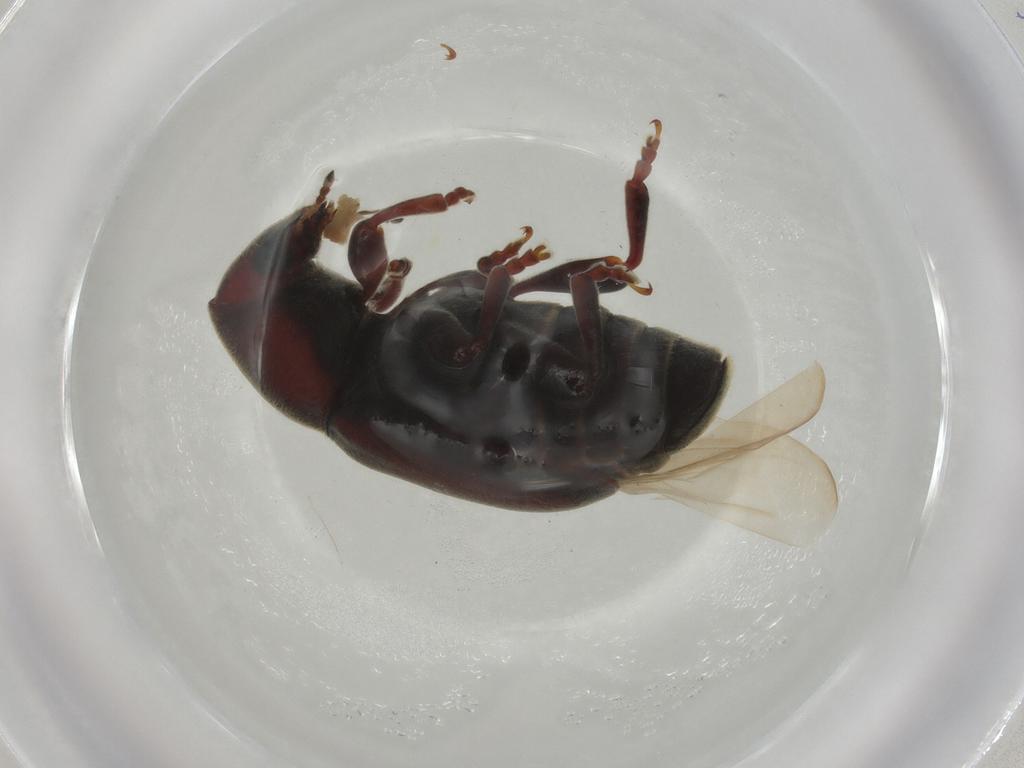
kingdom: Animalia
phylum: Arthropoda
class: Insecta
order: Coleoptera
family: Anthribidae
